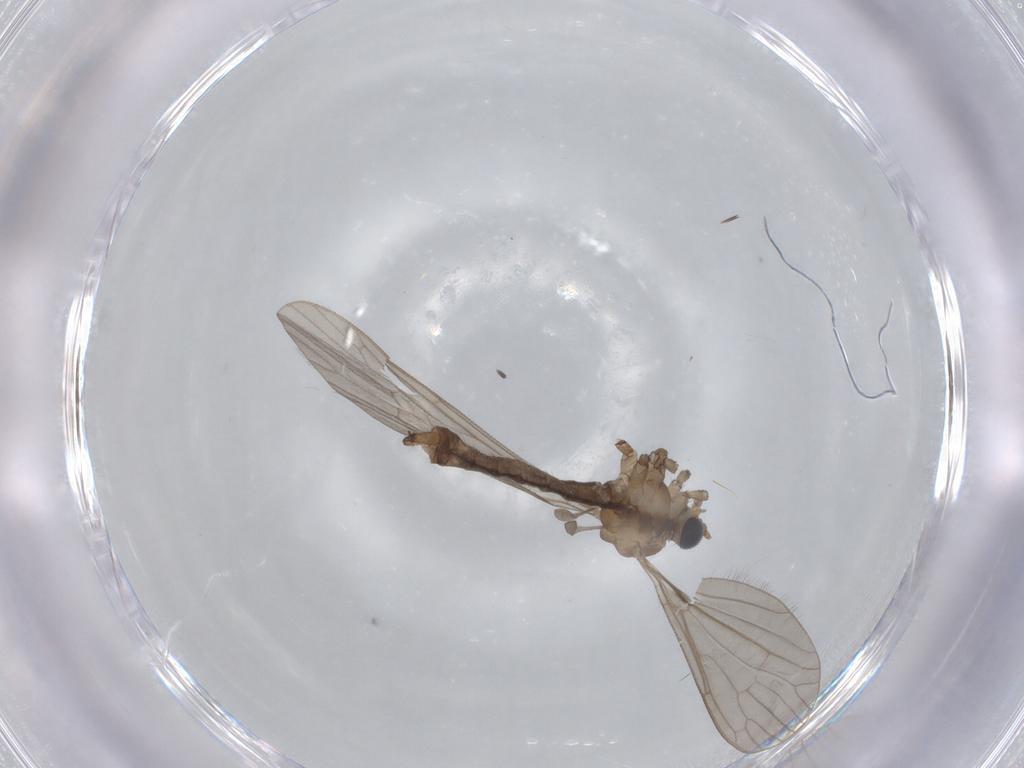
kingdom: Animalia
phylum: Arthropoda
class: Insecta
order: Diptera
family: Limoniidae
